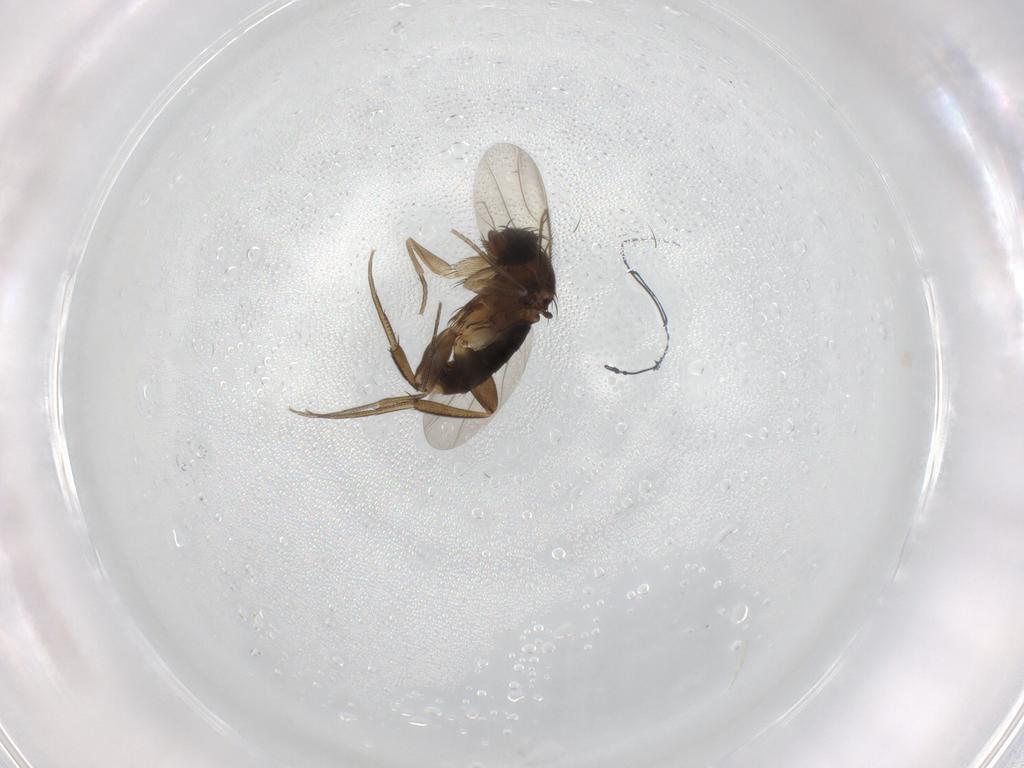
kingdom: Animalia
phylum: Arthropoda
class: Insecta
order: Diptera
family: Phoridae
